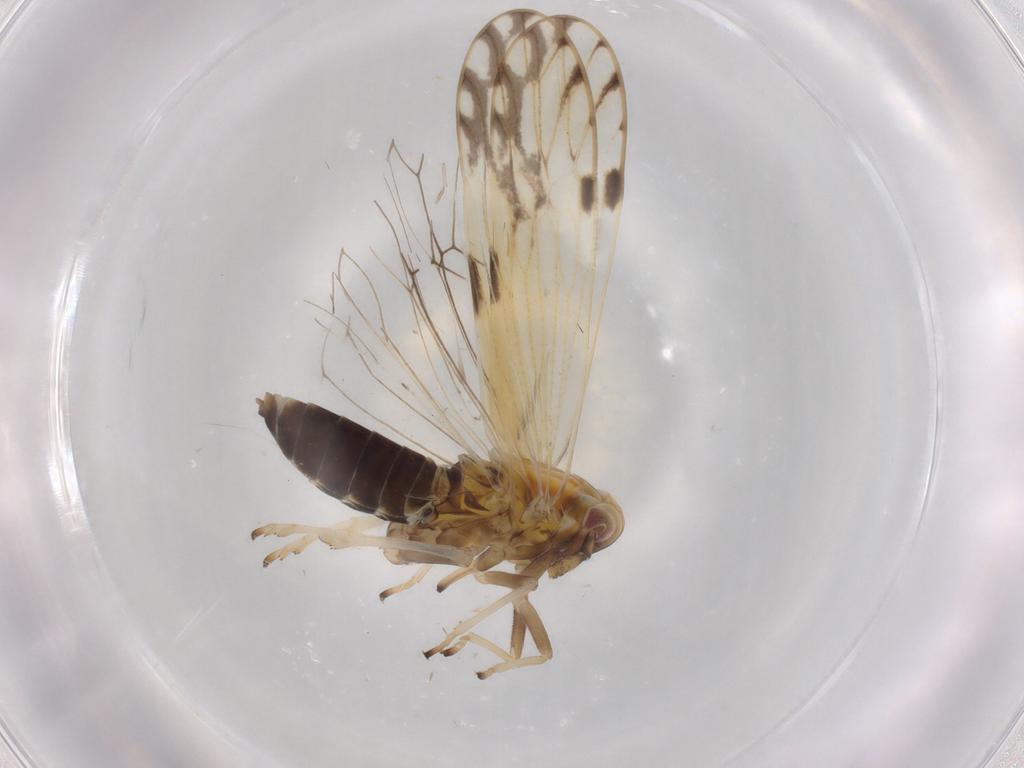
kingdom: Animalia
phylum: Arthropoda
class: Insecta
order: Hemiptera
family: Delphacidae
